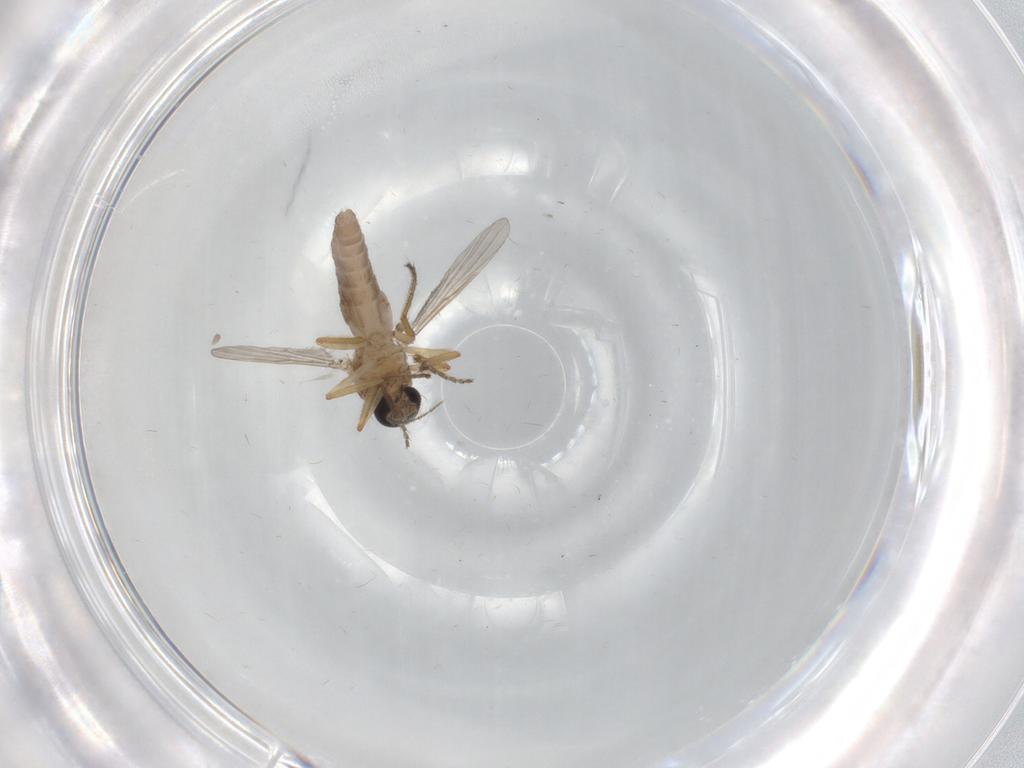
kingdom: Animalia
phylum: Arthropoda
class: Insecta
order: Diptera
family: Ceratopogonidae
